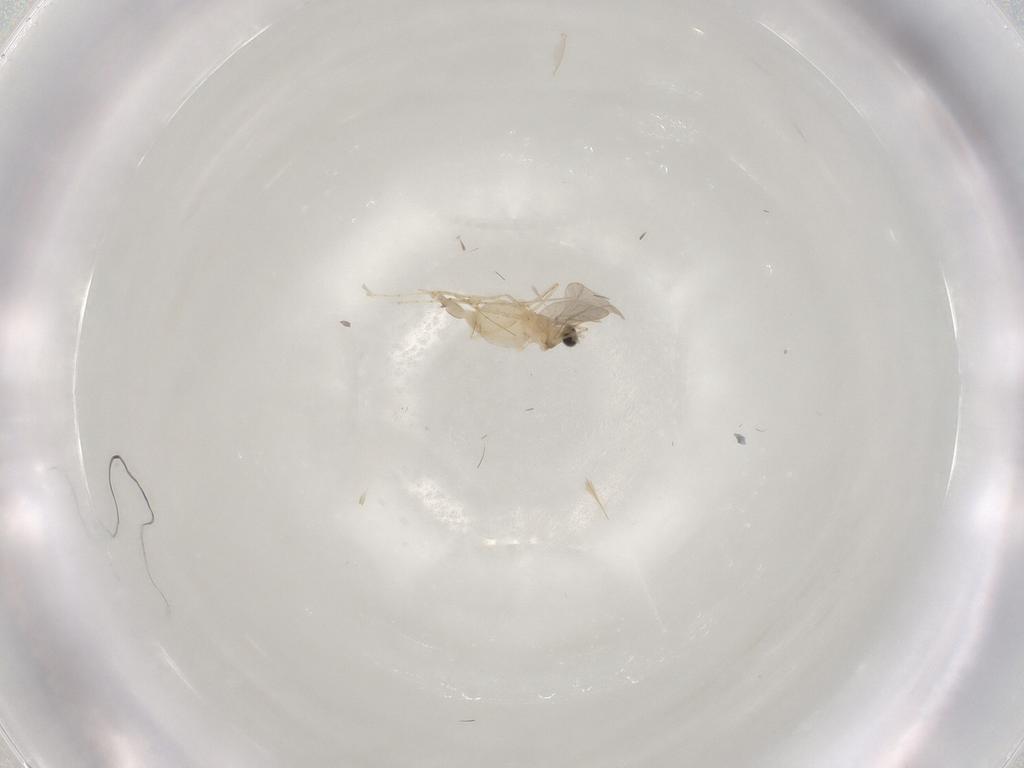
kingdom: Animalia
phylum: Arthropoda
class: Insecta
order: Diptera
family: Cecidomyiidae
